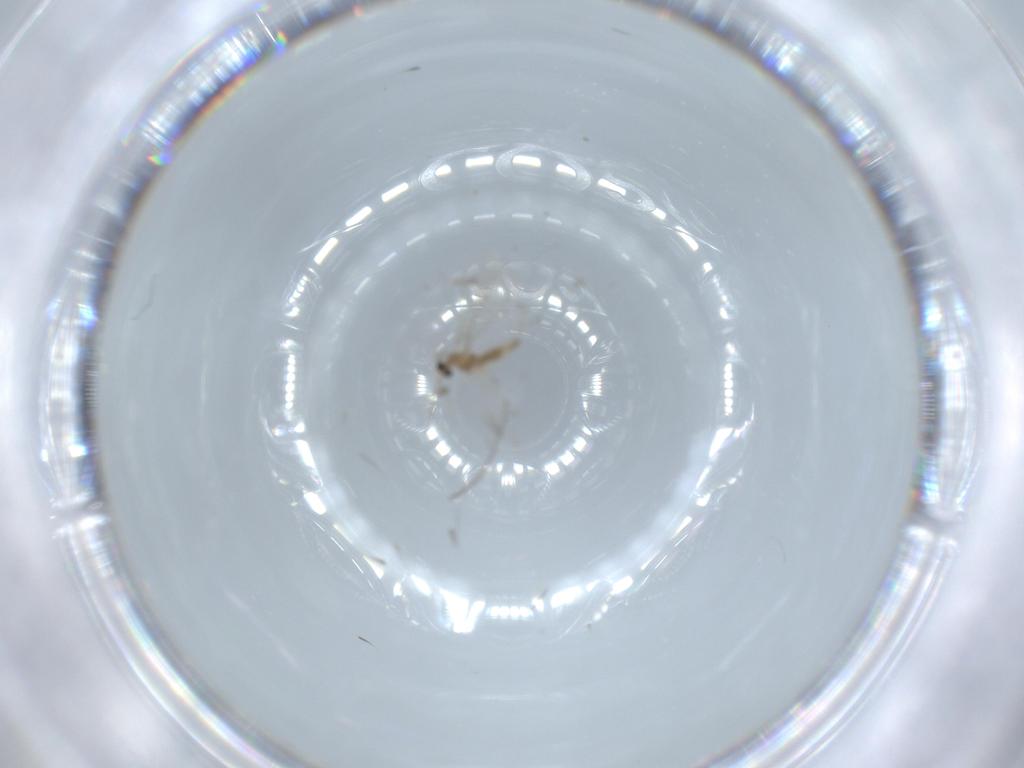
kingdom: Animalia
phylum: Arthropoda
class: Insecta
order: Diptera
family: Cecidomyiidae
